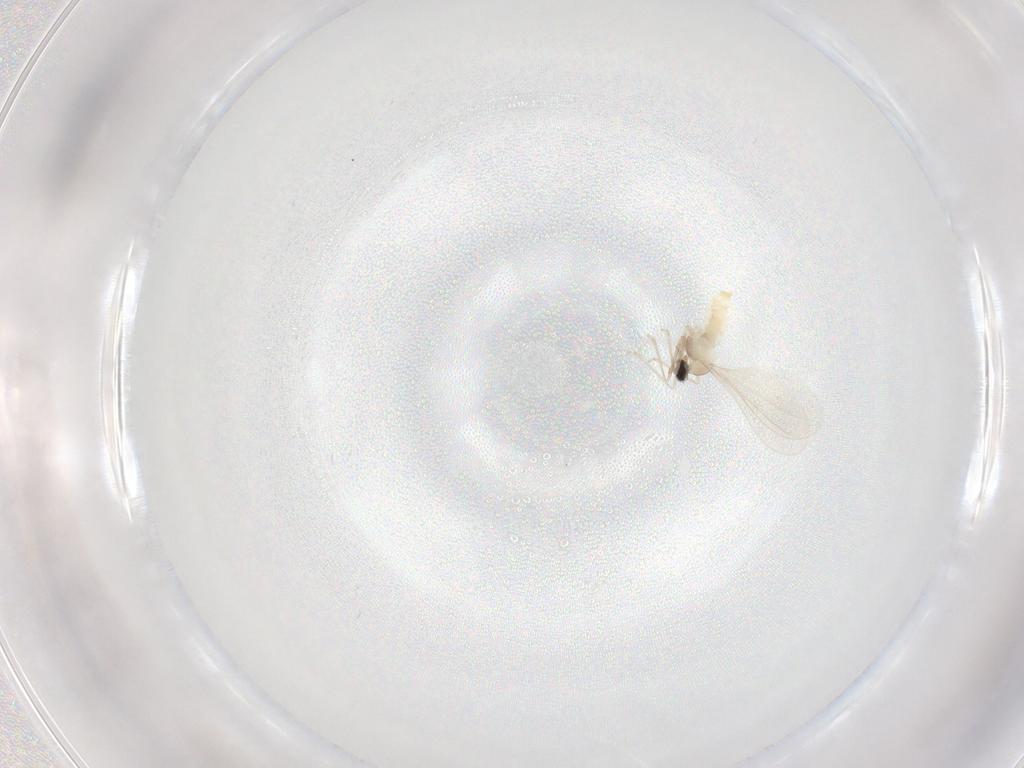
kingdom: Animalia
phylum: Arthropoda
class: Insecta
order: Diptera
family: Cecidomyiidae
